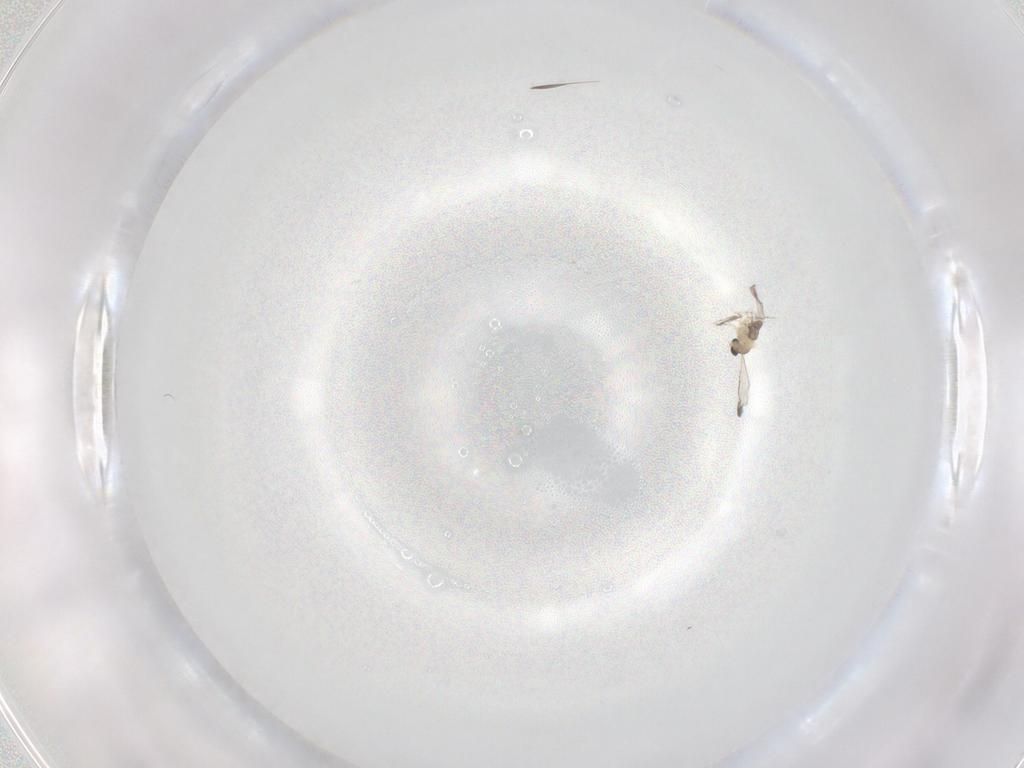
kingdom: Animalia
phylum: Arthropoda
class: Insecta
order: Diptera
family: Cecidomyiidae
